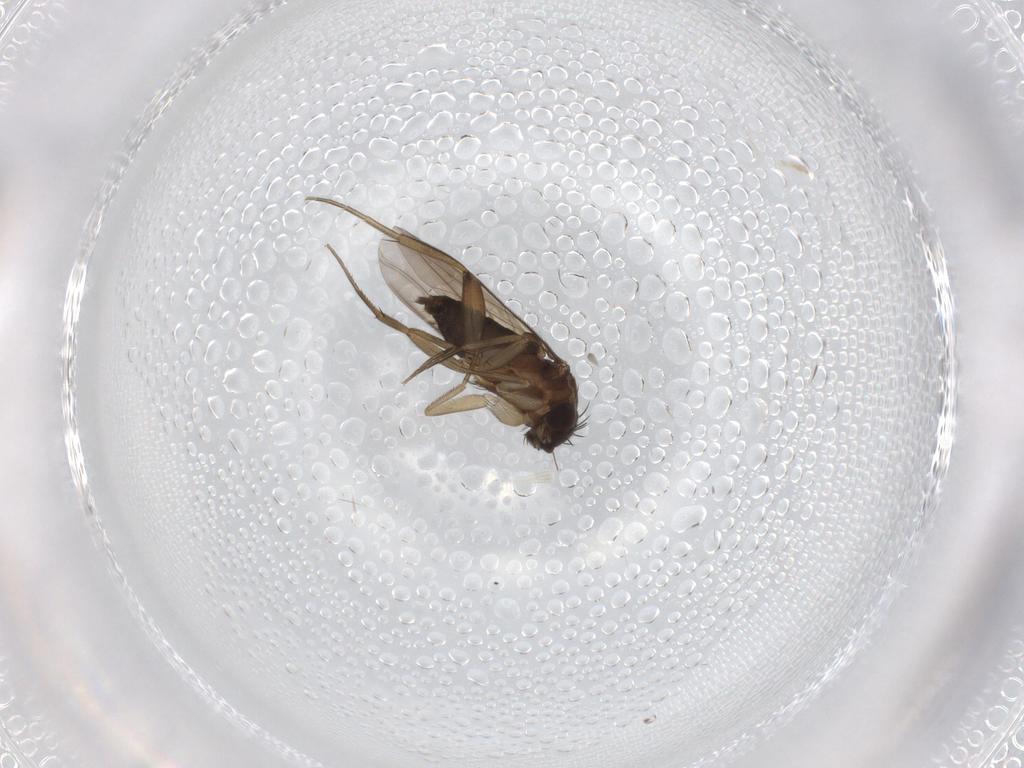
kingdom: Animalia
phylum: Arthropoda
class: Insecta
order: Diptera
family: Phoridae
